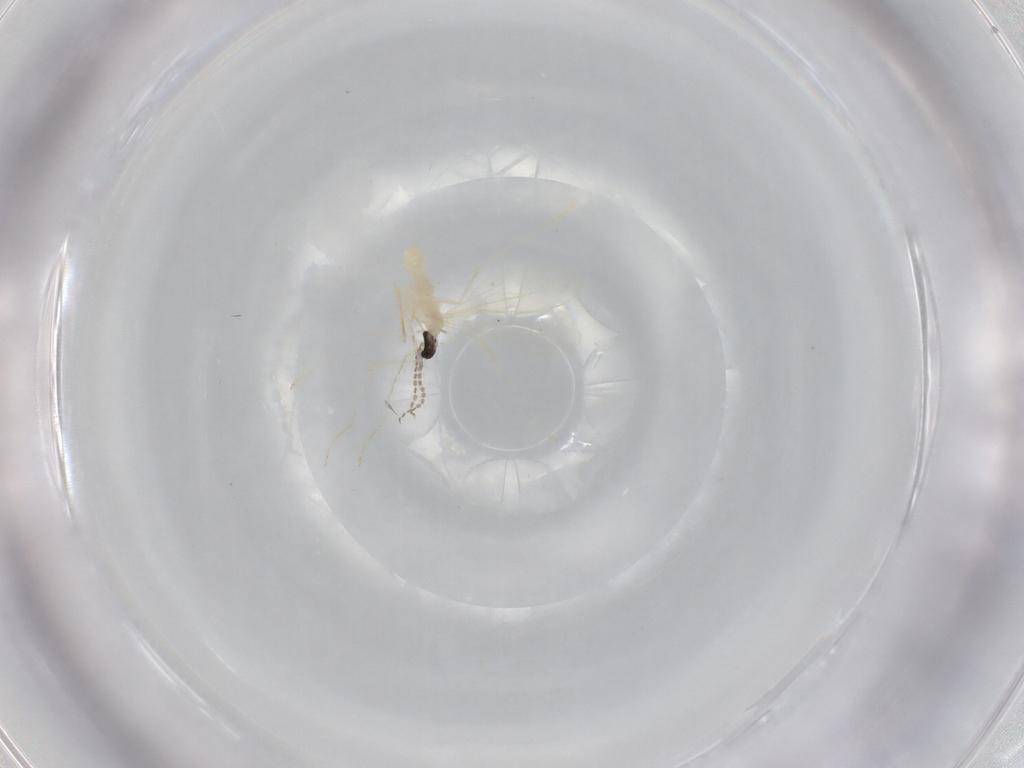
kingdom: Animalia
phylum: Arthropoda
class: Insecta
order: Diptera
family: Cecidomyiidae
